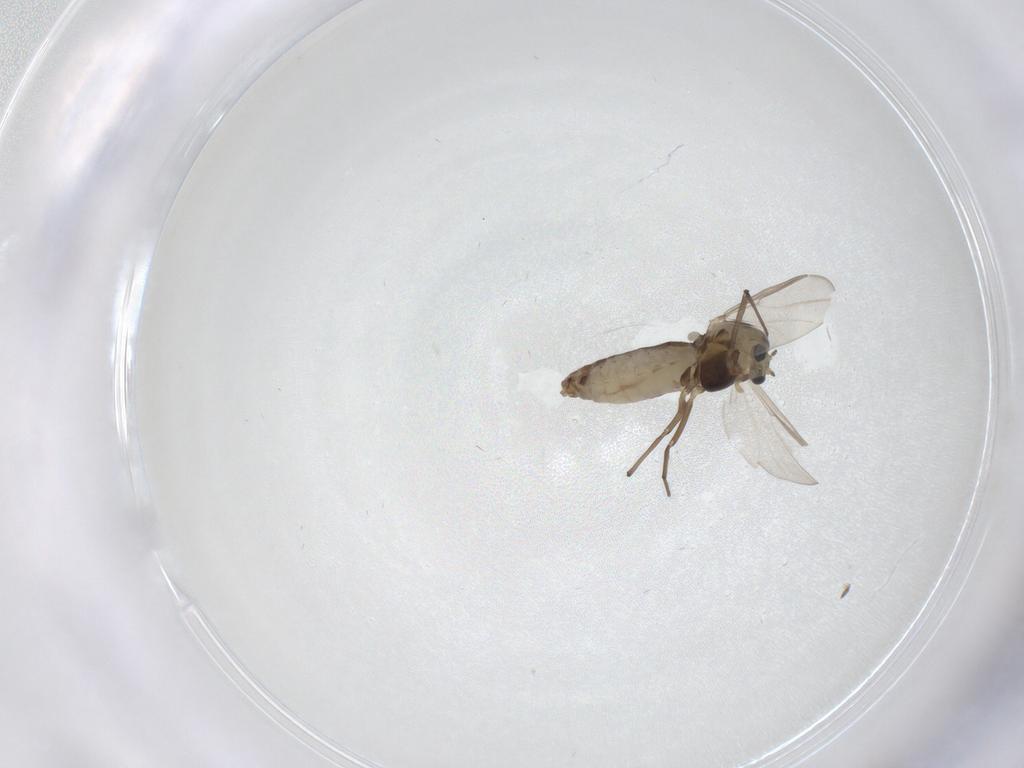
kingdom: Animalia
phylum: Arthropoda
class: Insecta
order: Diptera
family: Chironomidae
